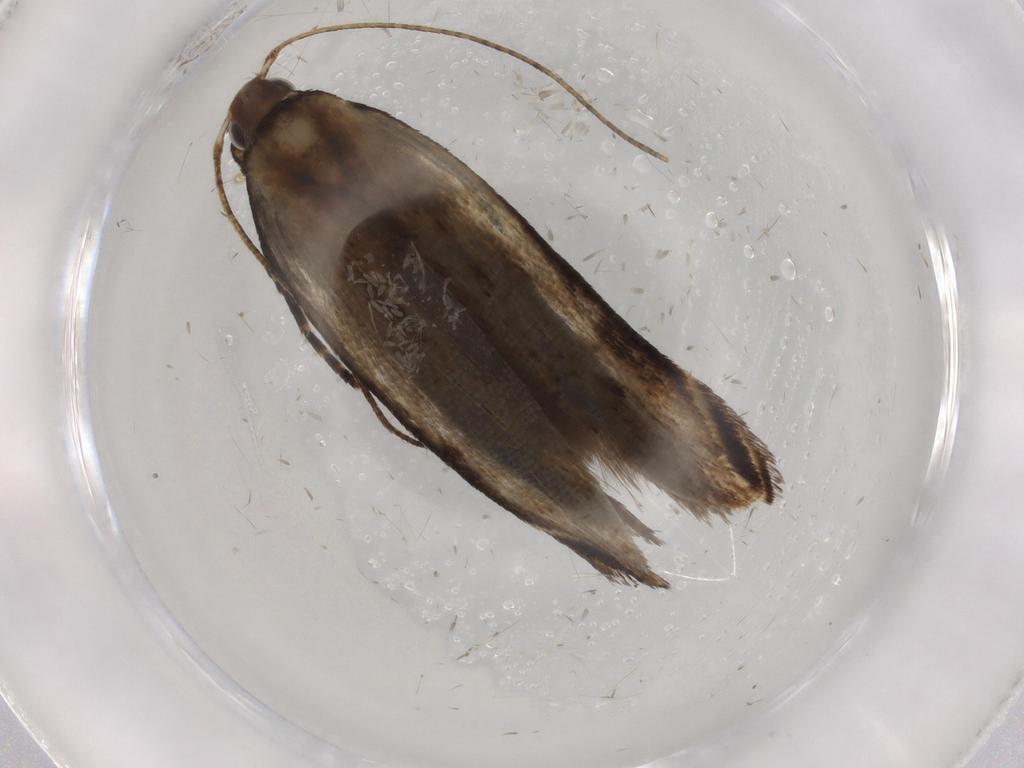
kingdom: Animalia
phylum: Arthropoda
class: Insecta
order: Lepidoptera
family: Gelechiidae
